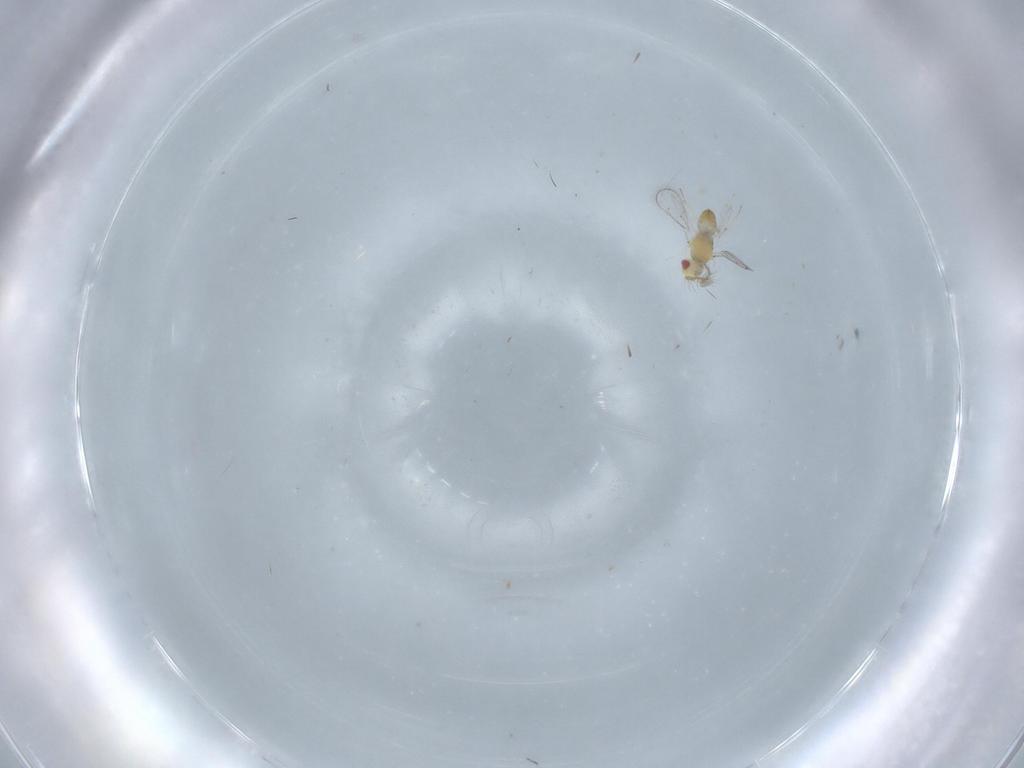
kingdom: Animalia
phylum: Arthropoda
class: Insecta
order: Hymenoptera
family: Eulophidae
